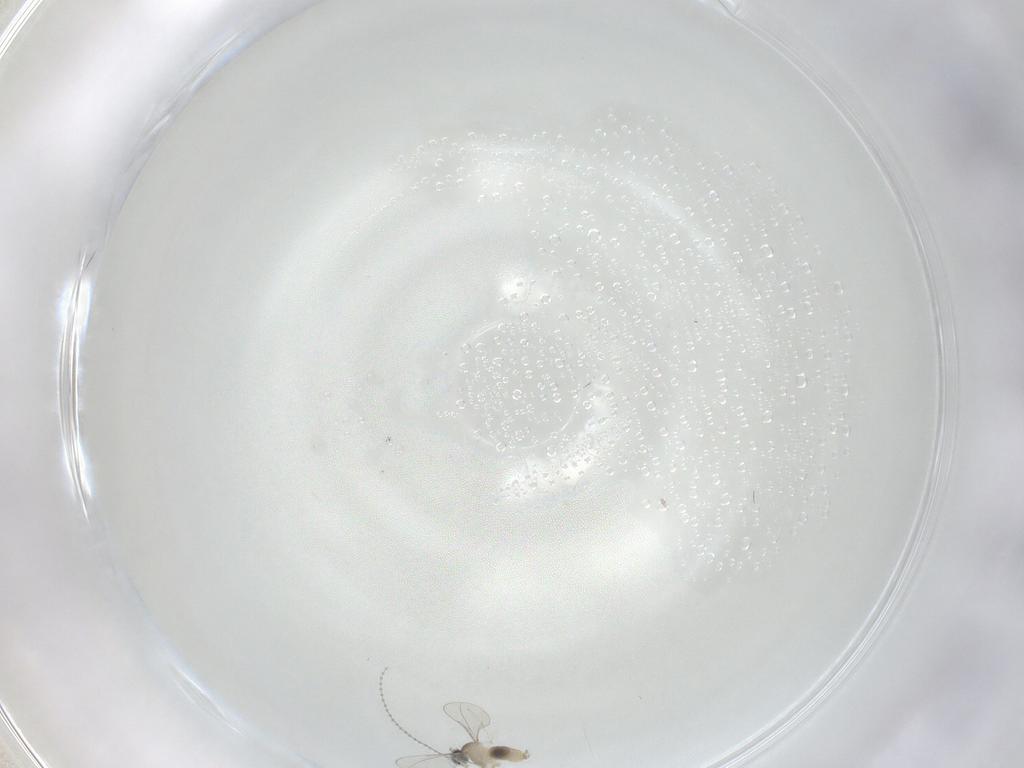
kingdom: Animalia
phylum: Arthropoda
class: Insecta
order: Diptera
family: Cecidomyiidae
